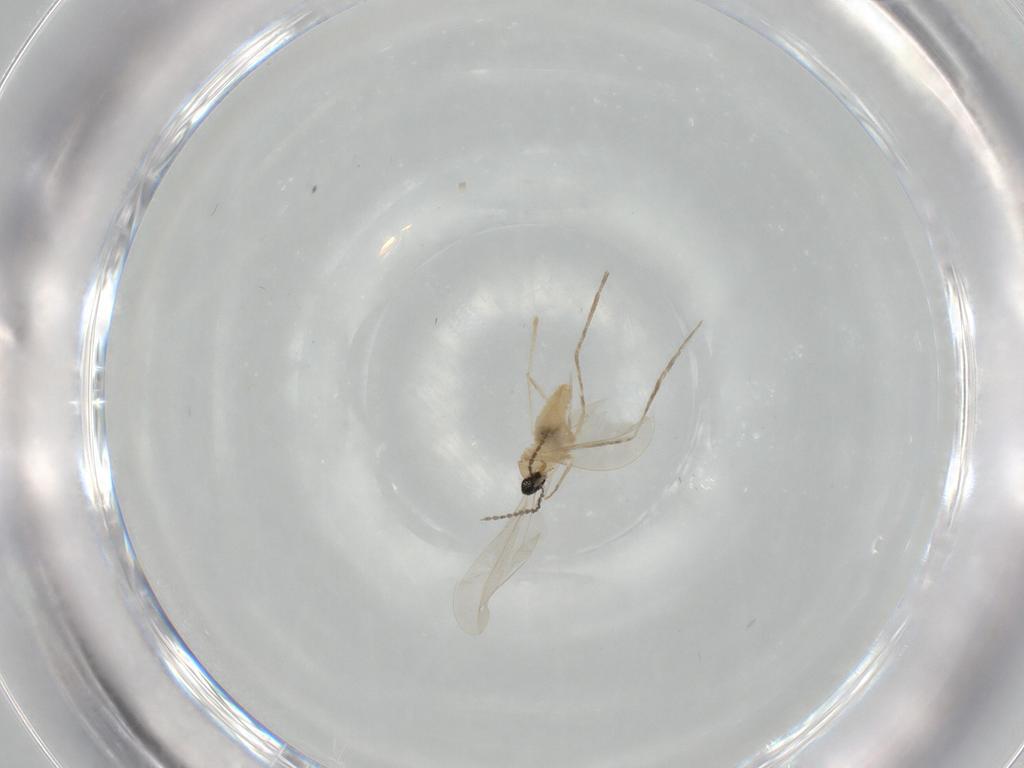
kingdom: Animalia
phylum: Arthropoda
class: Insecta
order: Diptera
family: Cecidomyiidae
